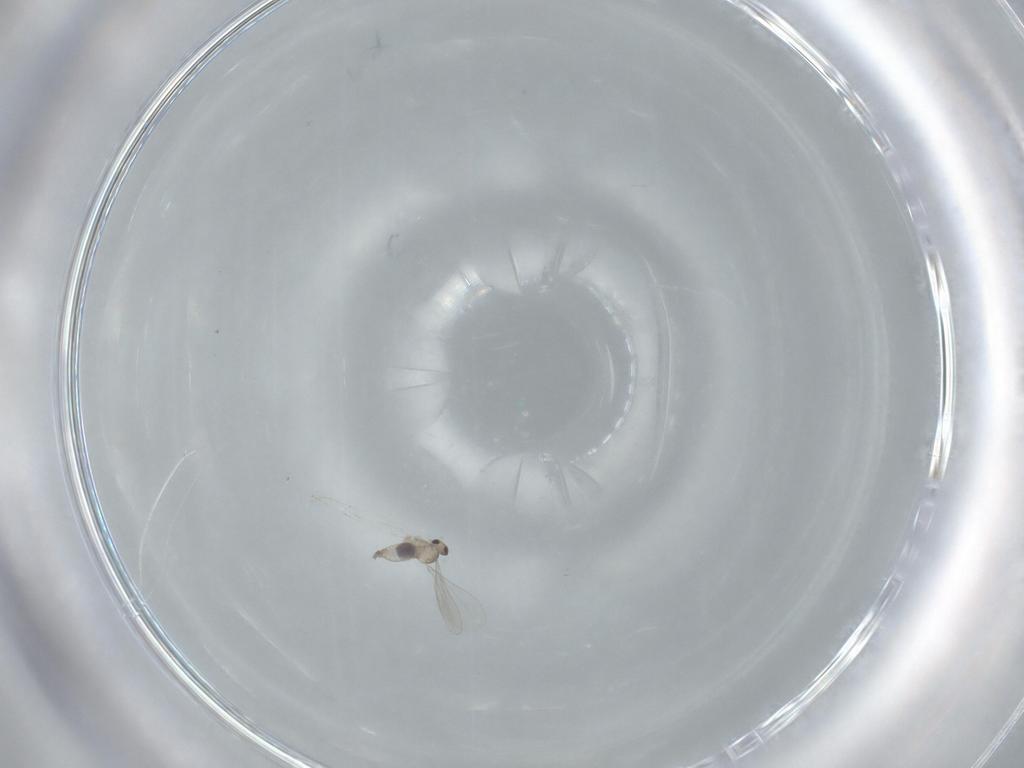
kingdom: Animalia
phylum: Arthropoda
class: Insecta
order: Diptera
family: Sciaridae
